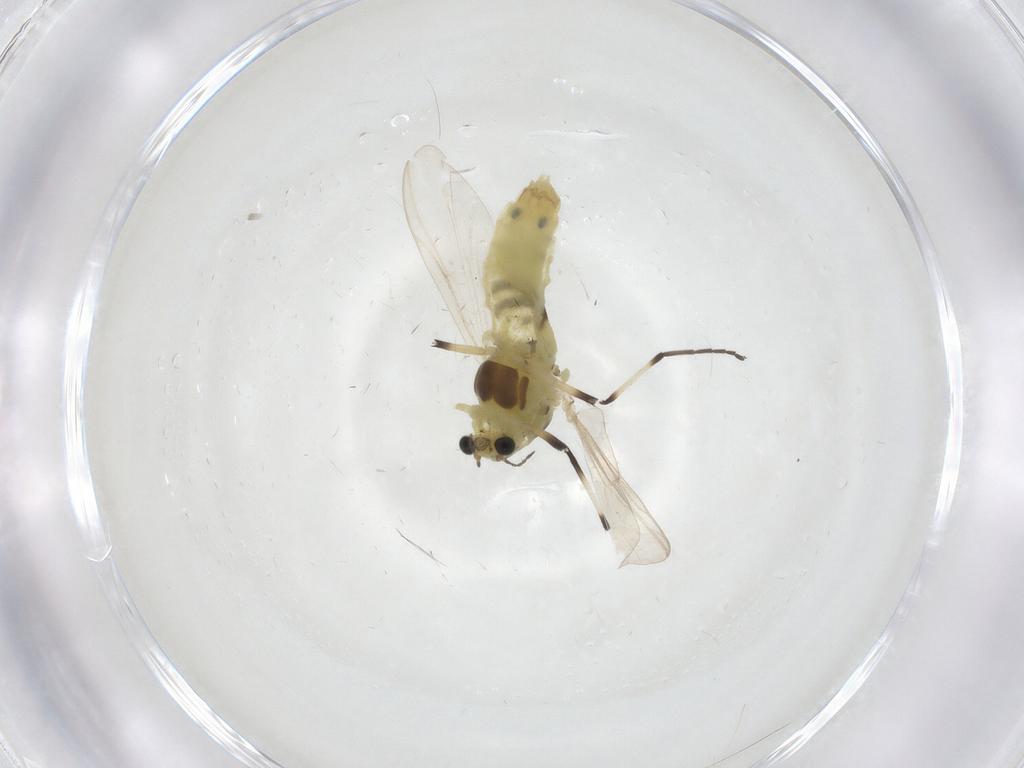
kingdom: Animalia
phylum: Arthropoda
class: Insecta
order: Diptera
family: Chironomidae
